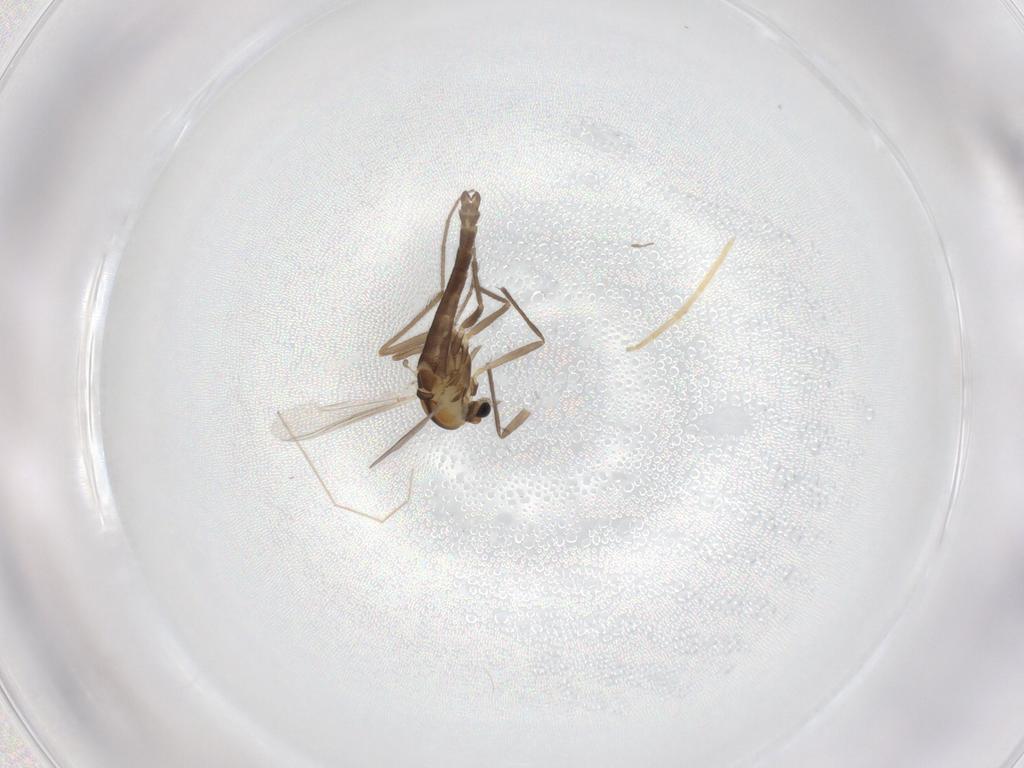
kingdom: Animalia
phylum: Arthropoda
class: Insecta
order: Diptera
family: Chironomidae
